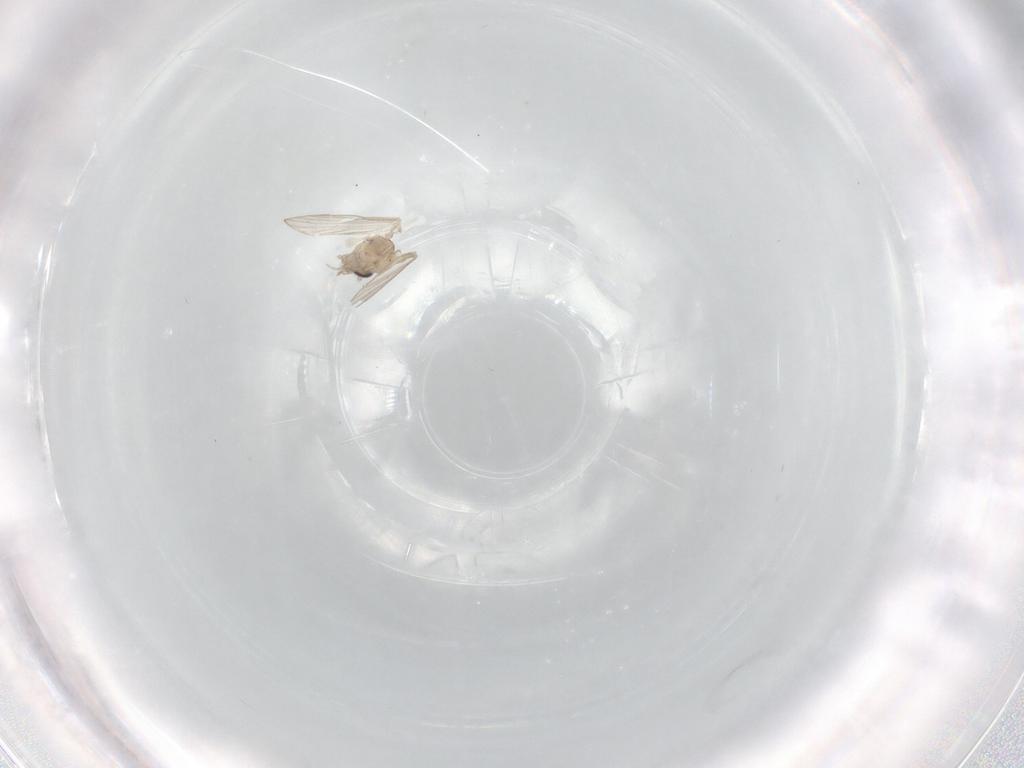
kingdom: Animalia
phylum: Arthropoda
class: Insecta
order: Diptera
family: Psychodidae
